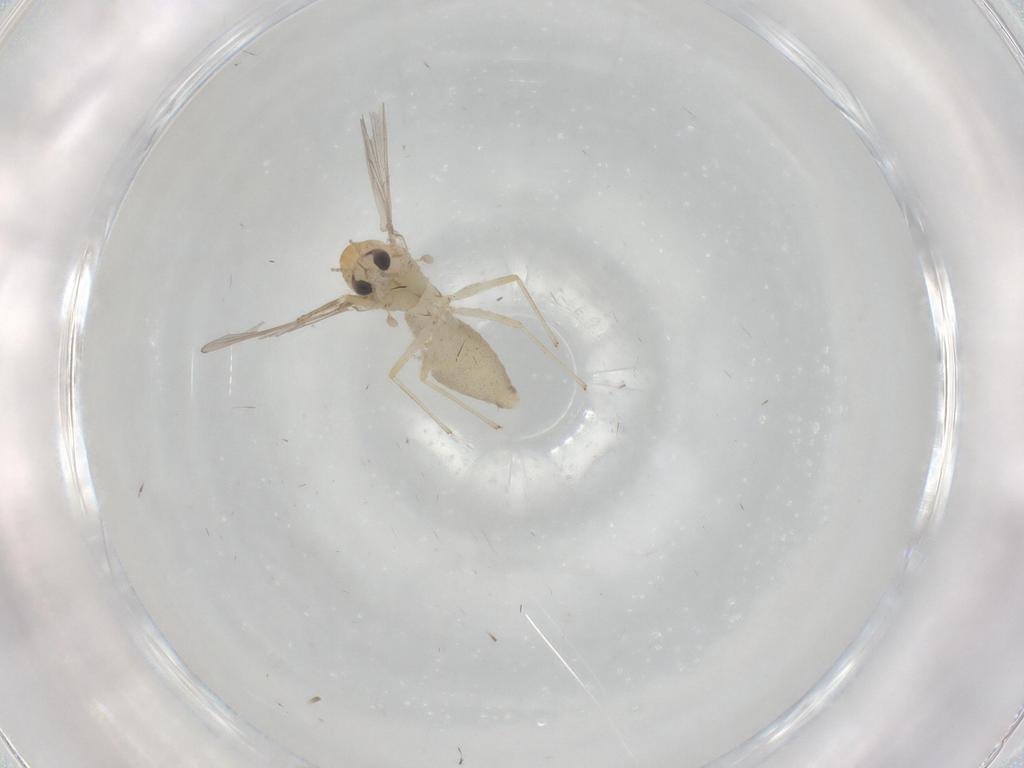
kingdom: Animalia
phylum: Arthropoda
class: Insecta
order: Diptera
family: Chironomidae
